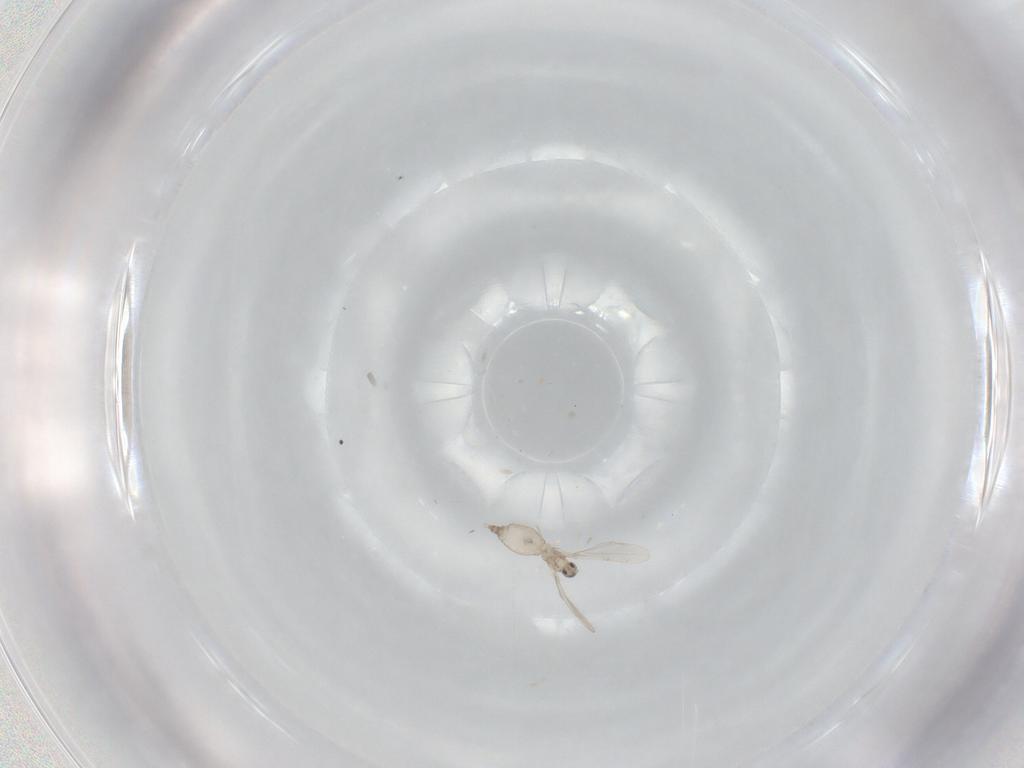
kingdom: Animalia
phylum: Arthropoda
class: Insecta
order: Diptera
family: Cecidomyiidae
